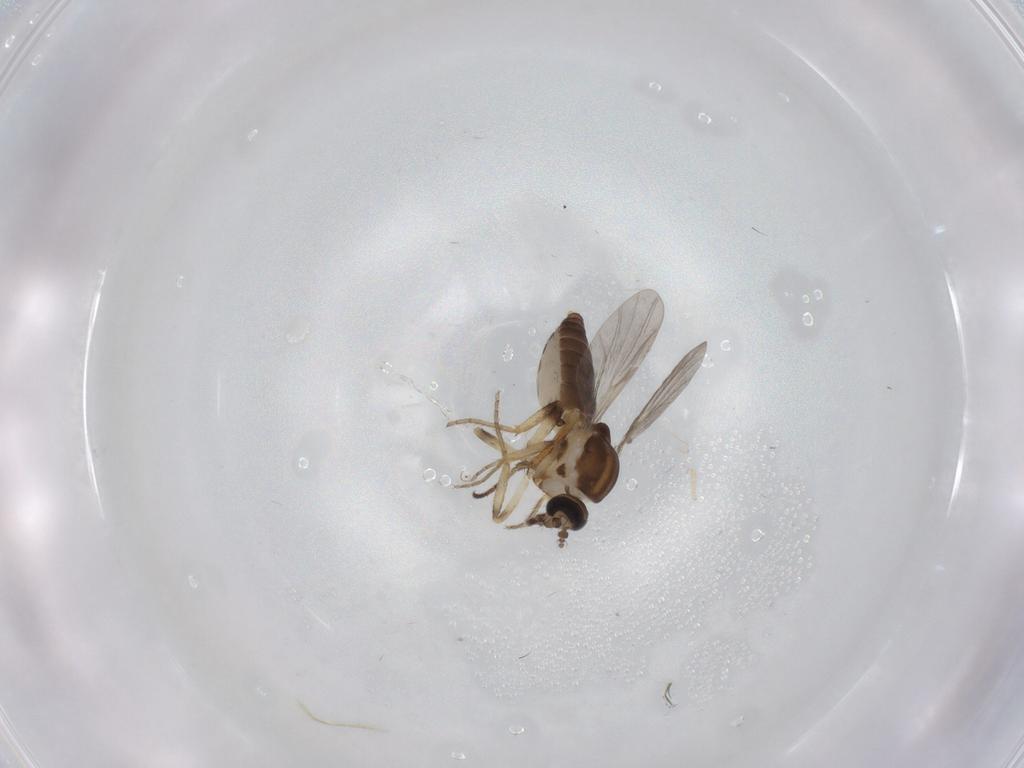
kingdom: Animalia
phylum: Arthropoda
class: Insecta
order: Diptera
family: Ceratopogonidae
